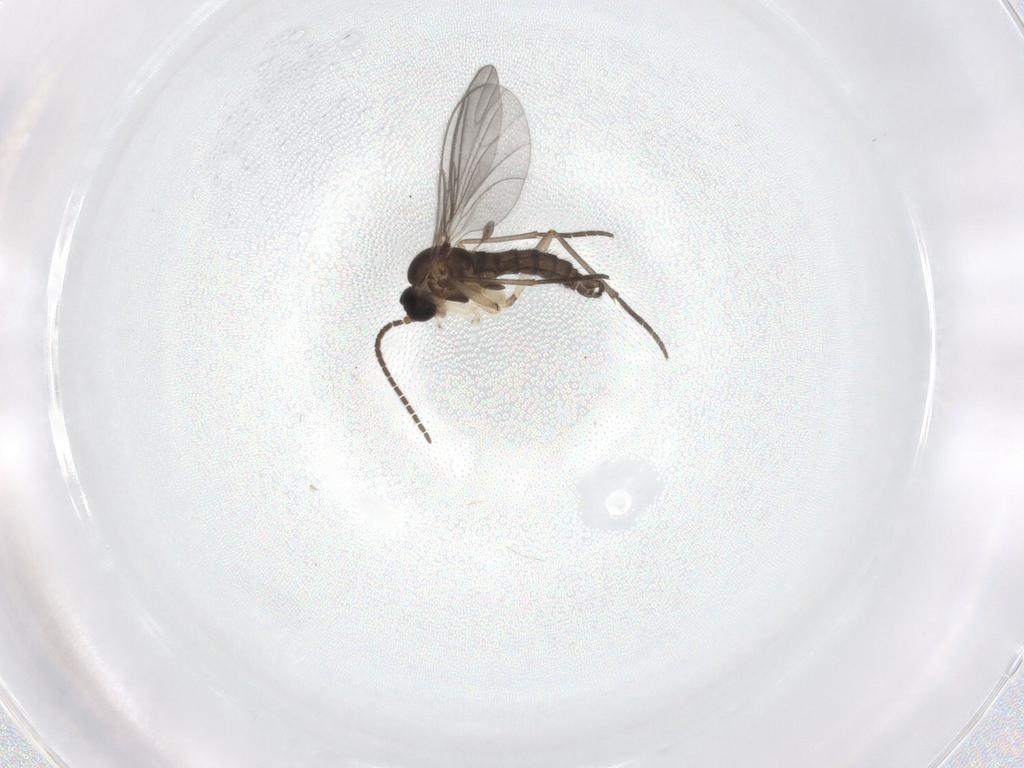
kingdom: Animalia
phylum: Arthropoda
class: Insecta
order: Diptera
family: Sciaridae
